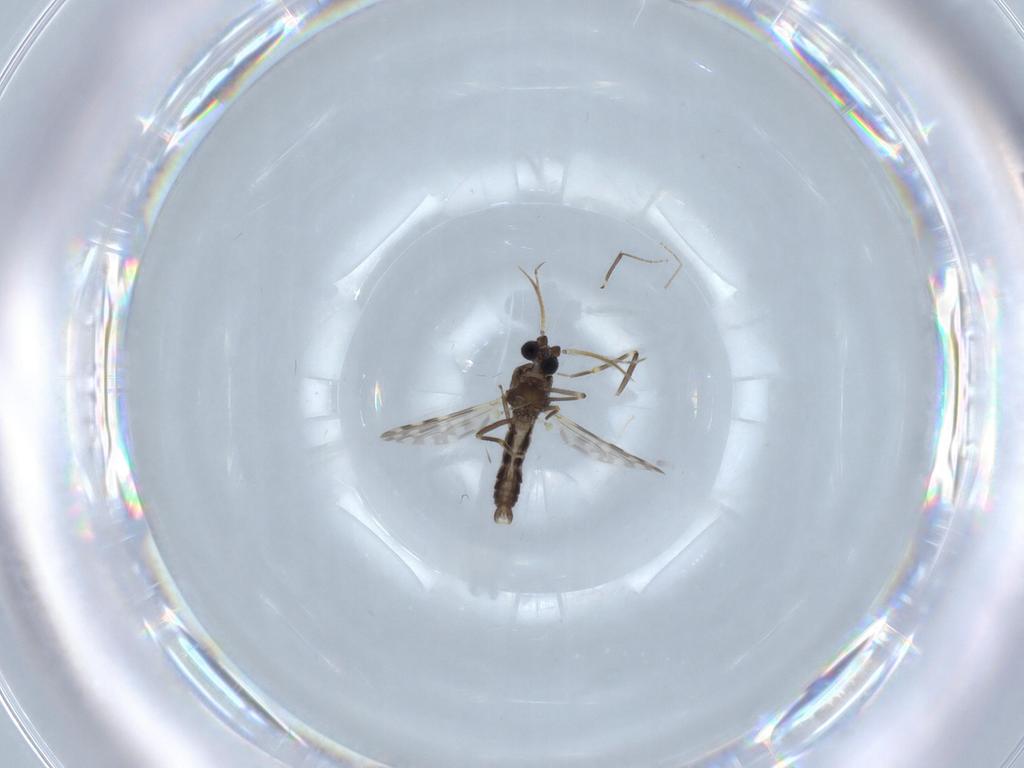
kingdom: Animalia
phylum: Arthropoda
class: Insecta
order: Diptera
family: Ceratopogonidae
